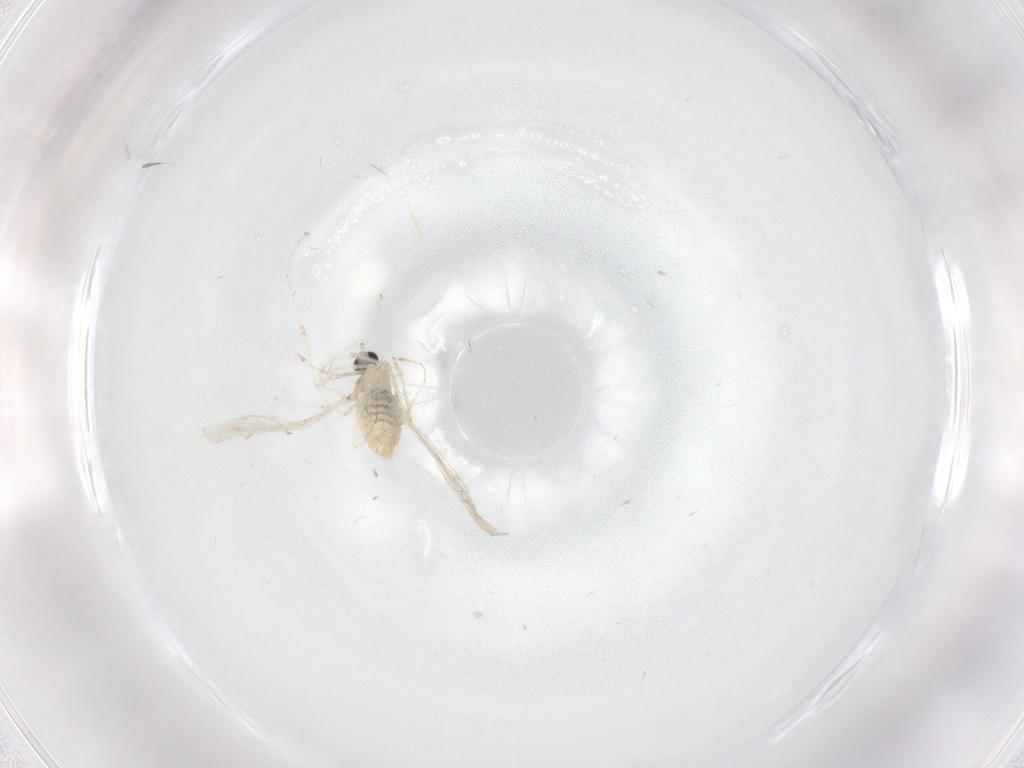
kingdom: Animalia
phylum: Arthropoda
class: Insecta
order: Diptera
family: Cecidomyiidae
